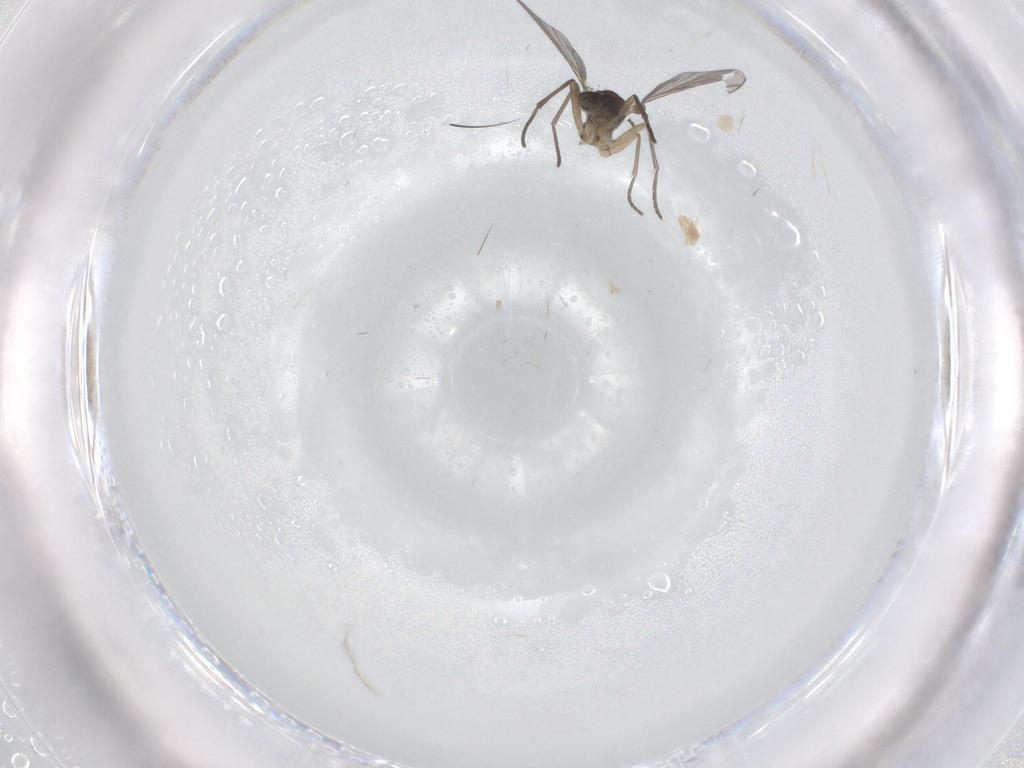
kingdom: Animalia
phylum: Arthropoda
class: Insecta
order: Diptera
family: Sciaridae
